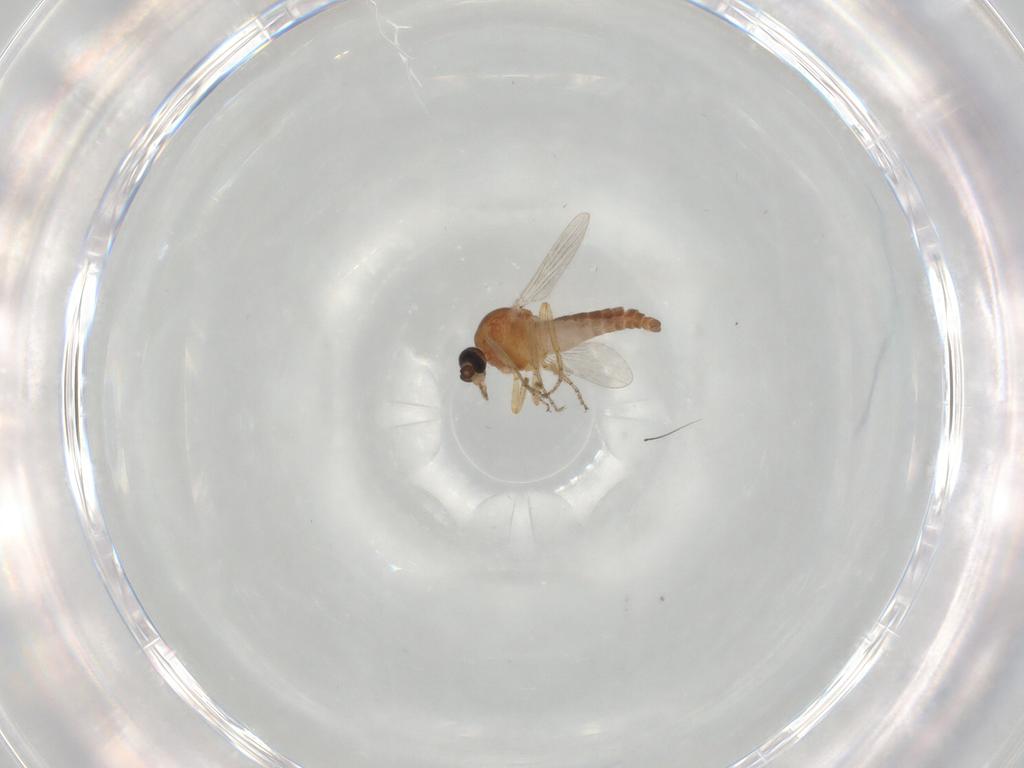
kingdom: Animalia
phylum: Arthropoda
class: Insecta
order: Diptera
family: Ceratopogonidae
